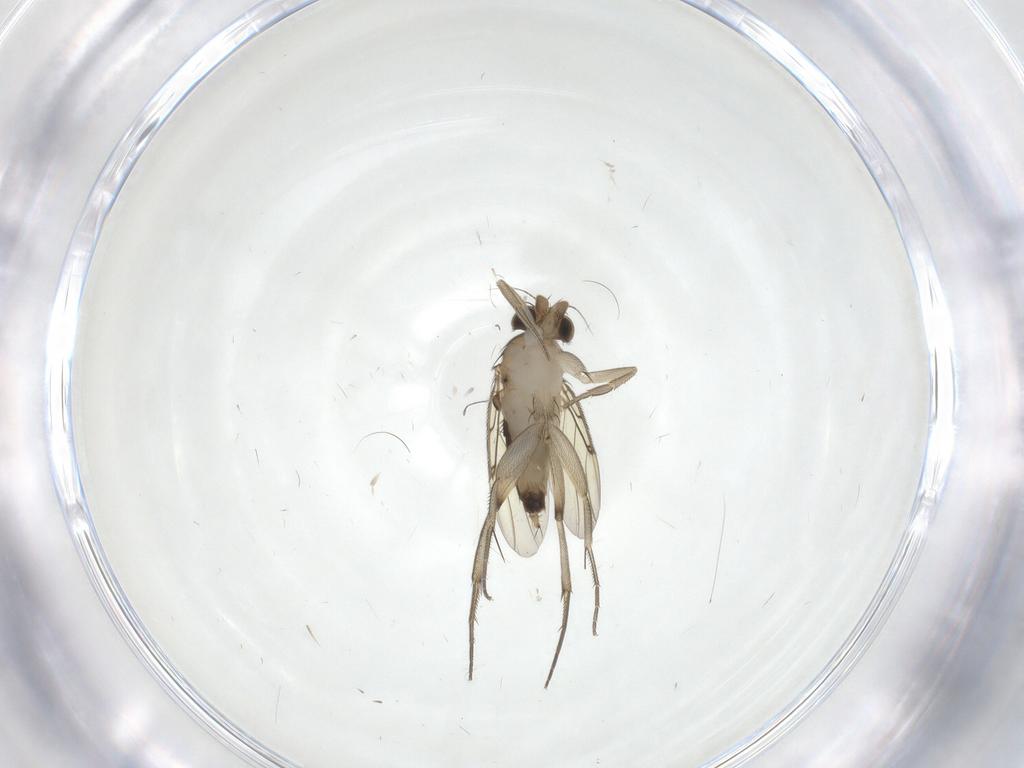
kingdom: Animalia
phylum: Arthropoda
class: Insecta
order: Diptera
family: Phoridae
